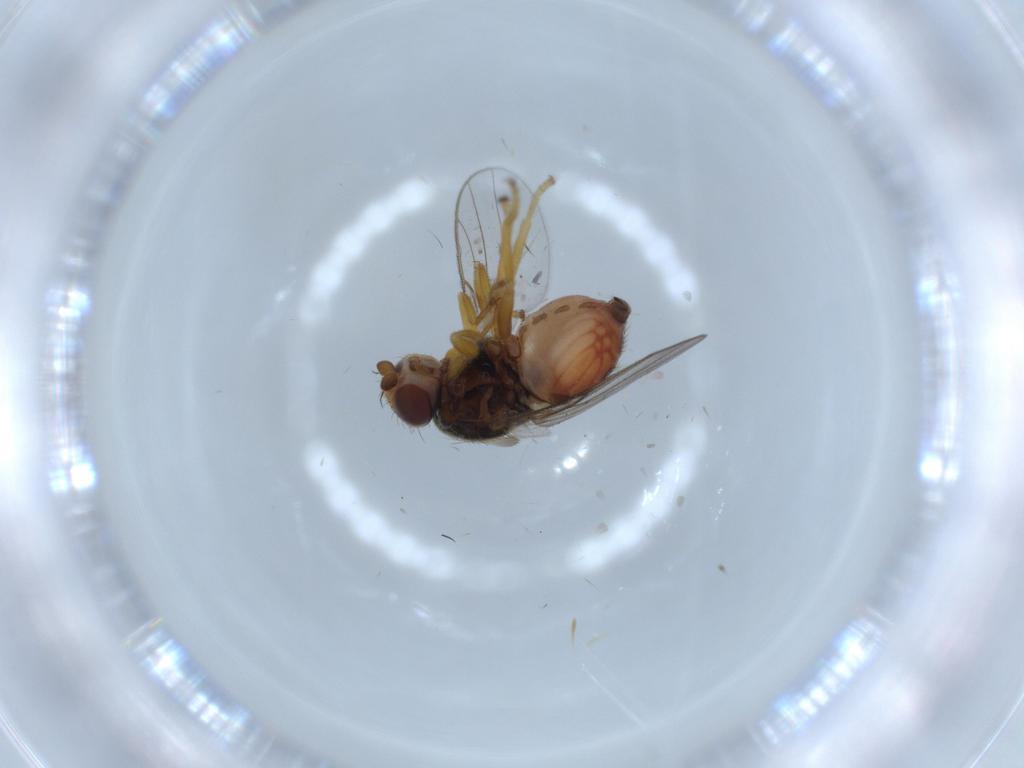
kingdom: Animalia
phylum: Arthropoda
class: Insecta
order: Diptera
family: Chloropidae
